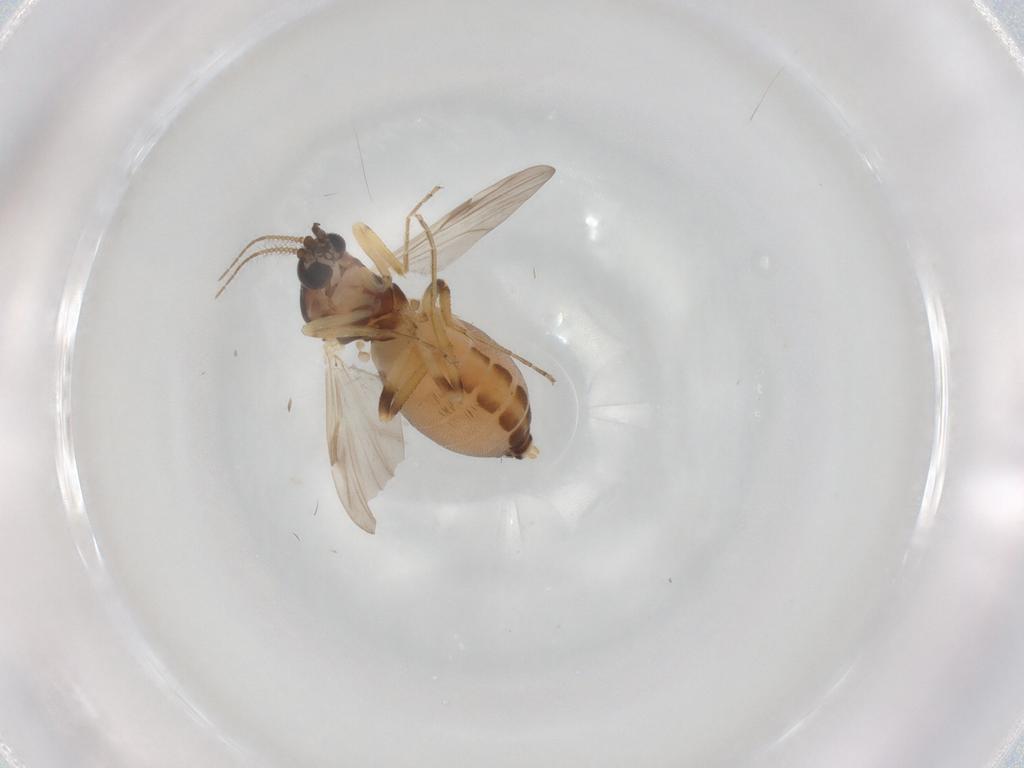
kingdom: Animalia
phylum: Arthropoda
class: Insecta
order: Diptera
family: Ceratopogonidae
